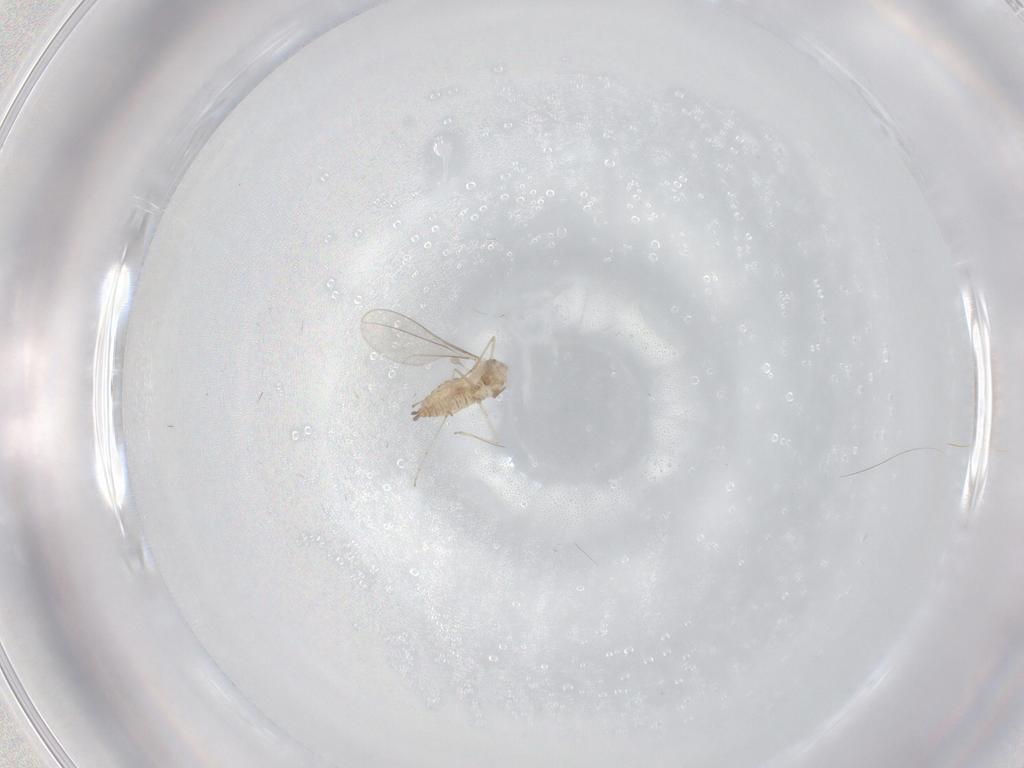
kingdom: Animalia
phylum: Arthropoda
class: Insecta
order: Diptera
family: Cecidomyiidae
